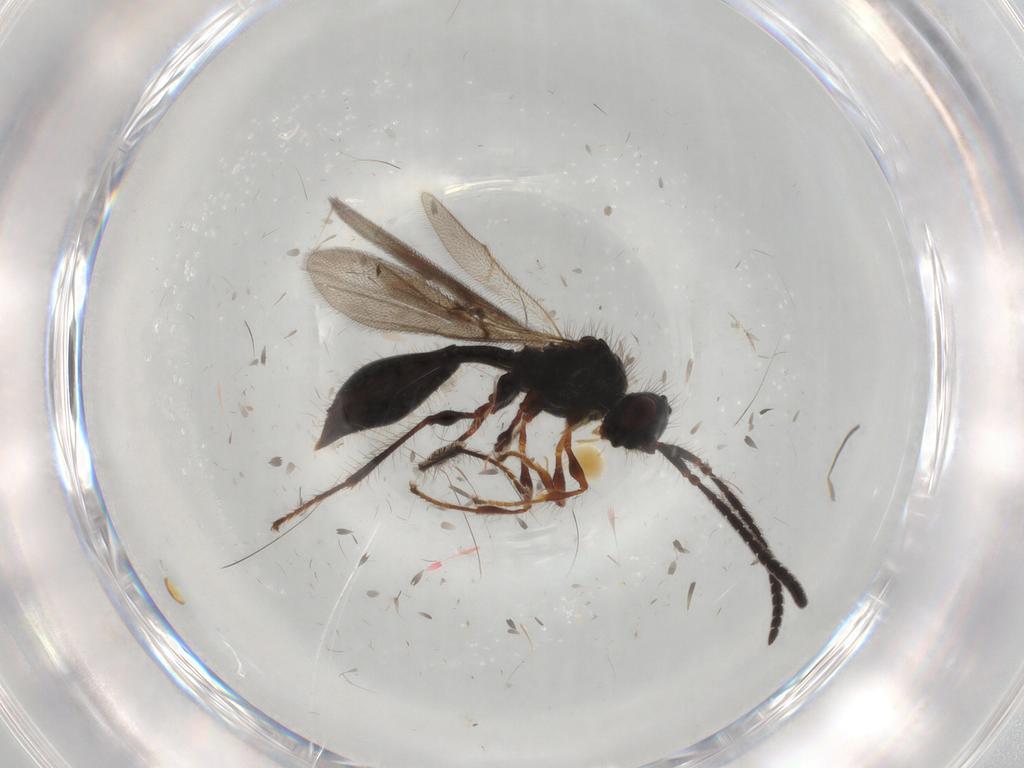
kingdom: Animalia
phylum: Arthropoda
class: Insecta
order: Hymenoptera
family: Diapriidae
